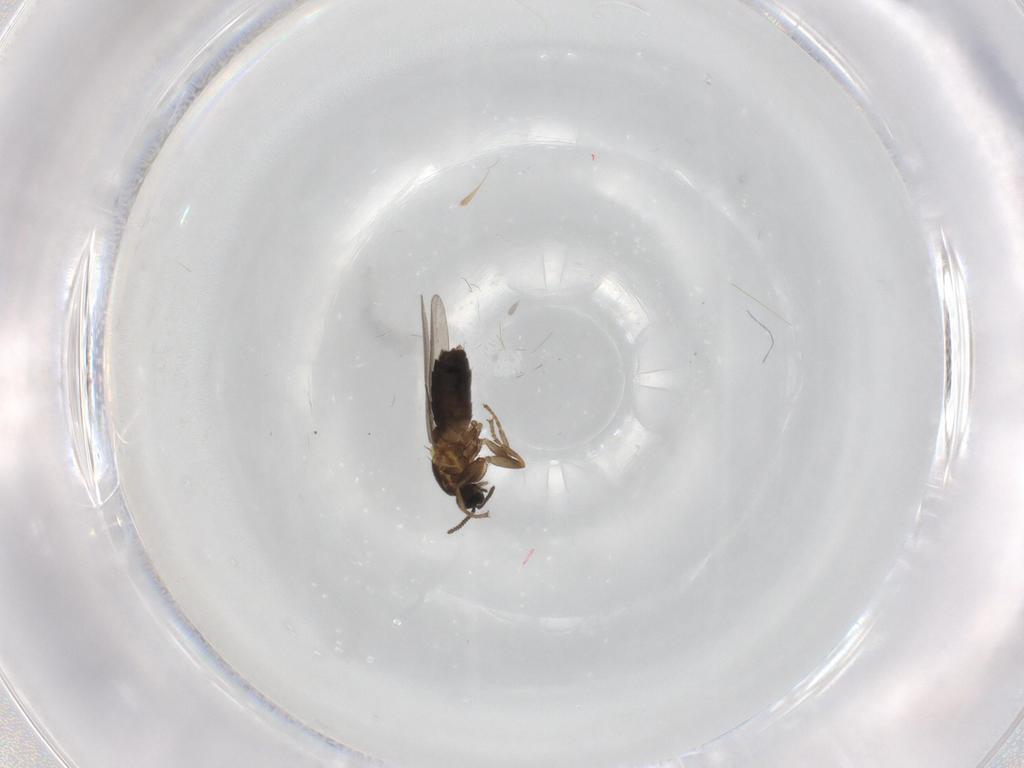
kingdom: Animalia
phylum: Arthropoda
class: Insecta
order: Diptera
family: Scatopsidae
